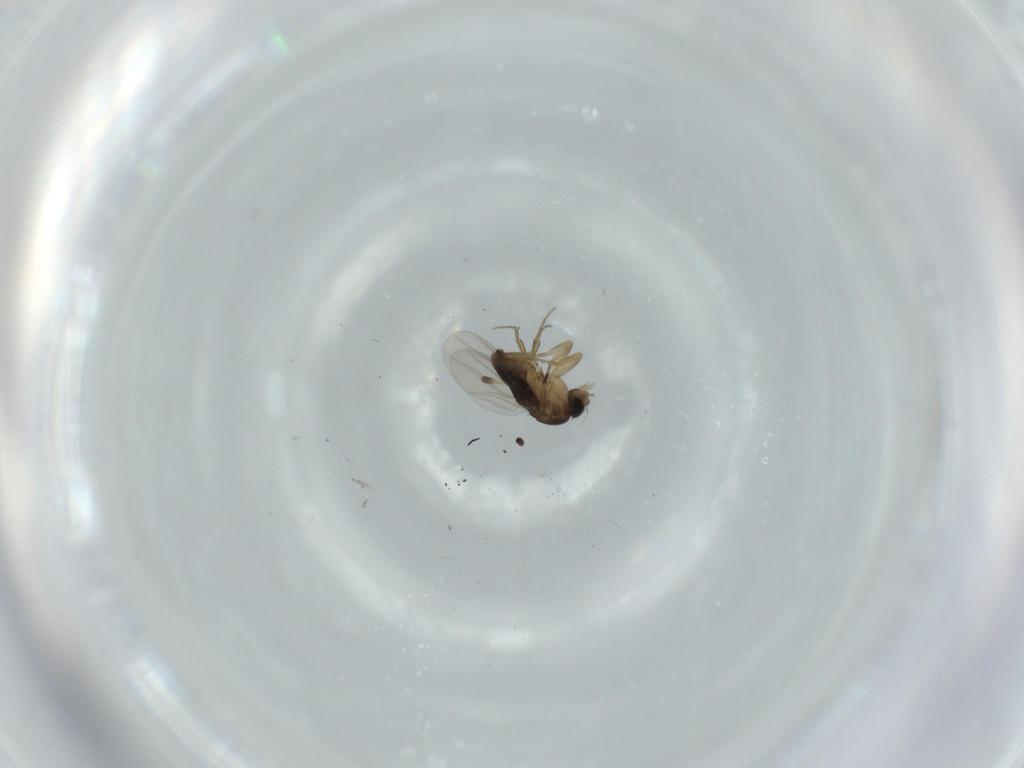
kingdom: Animalia
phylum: Arthropoda
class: Insecta
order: Diptera
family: Phoridae
